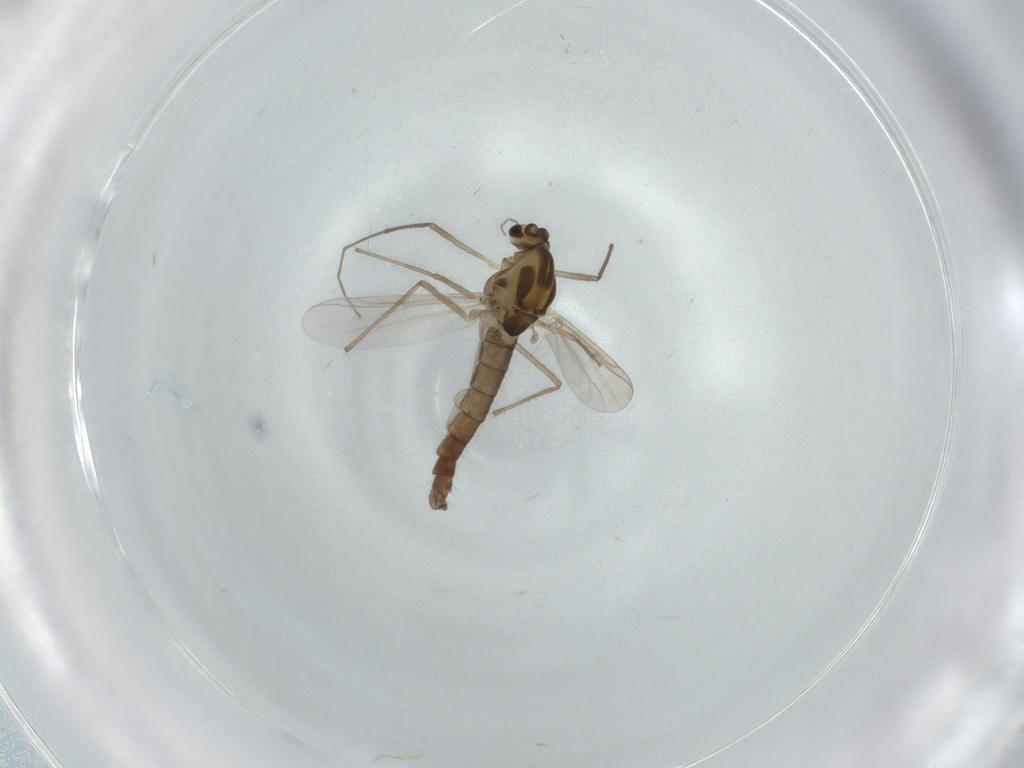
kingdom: Animalia
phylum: Arthropoda
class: Insecta
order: Diptera
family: Chironomidae
